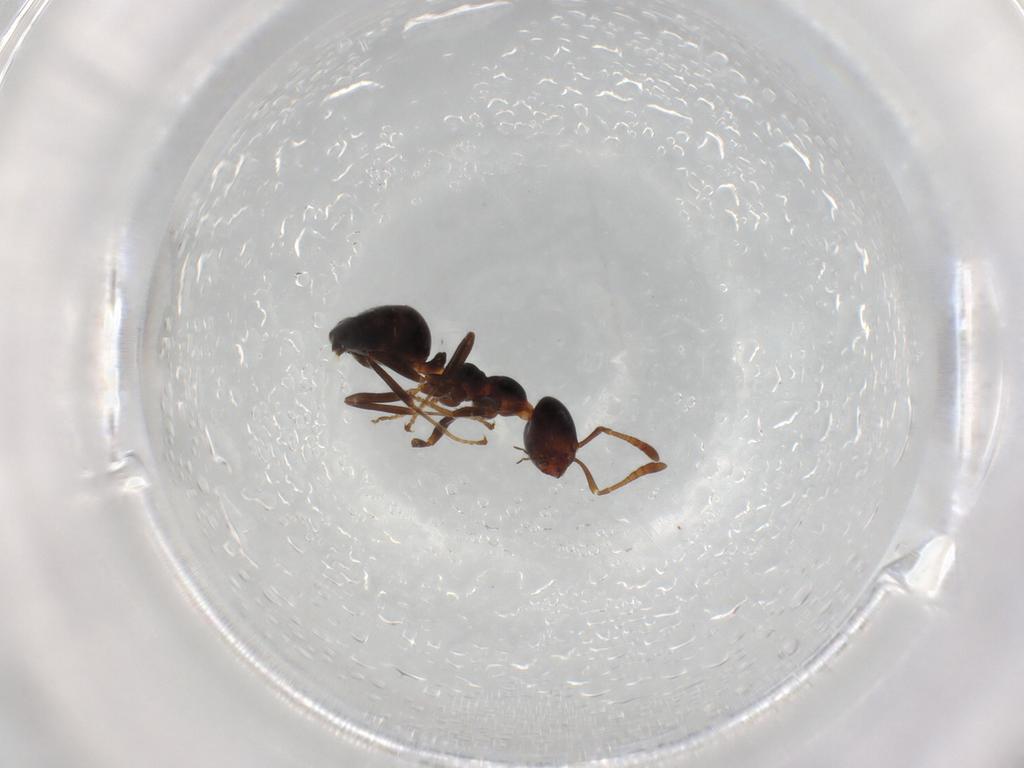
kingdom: Animalia
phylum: Arthropoda
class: Insecta
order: Hymenoptera
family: Formicidae
